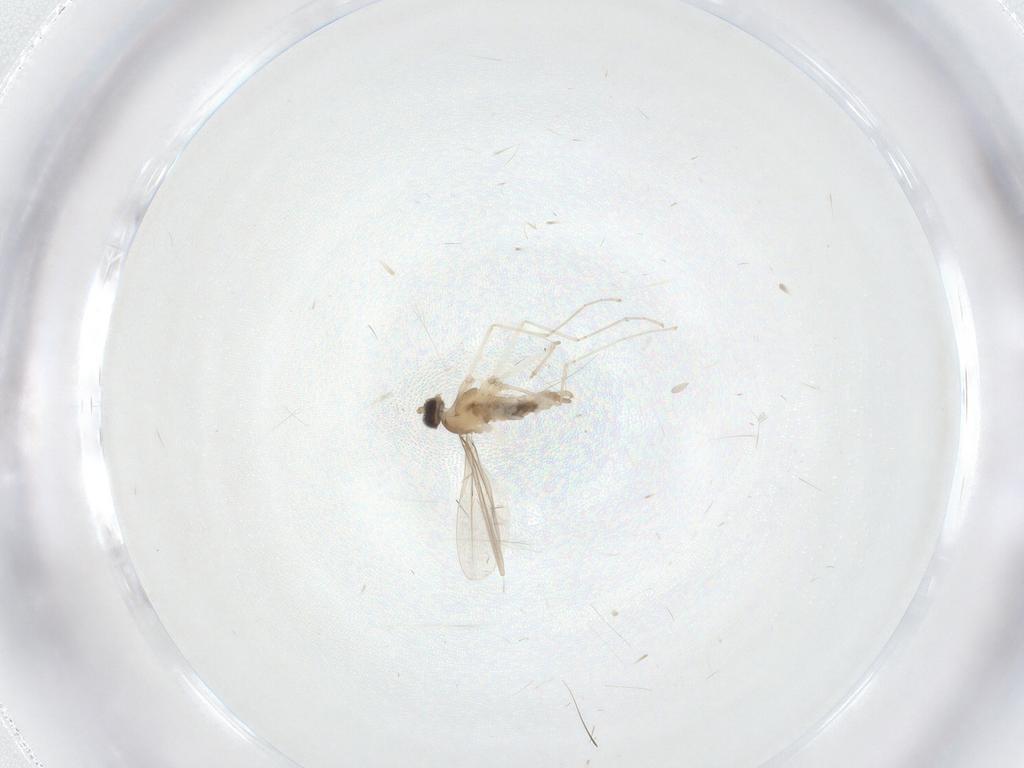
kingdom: Animalia
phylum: Arthropoda
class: Insecta
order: Diptera
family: Cecidomyiidae
